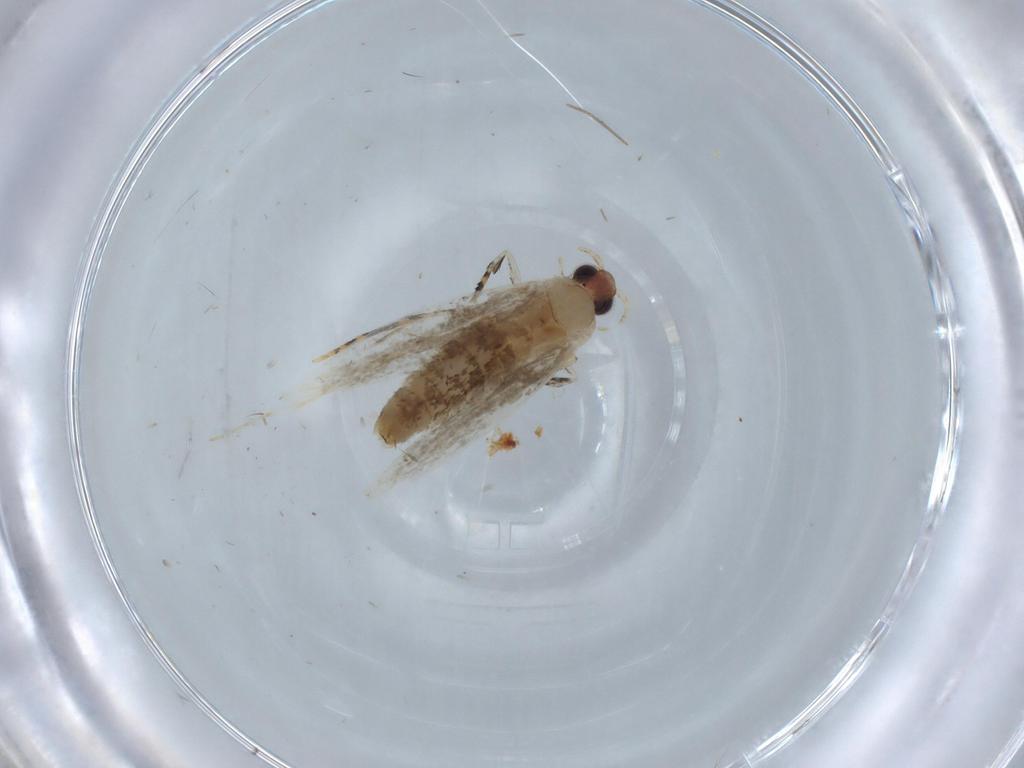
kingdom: Animalia
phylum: Arthropoda
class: Insecta
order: Lepidoptera
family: Tineidae
